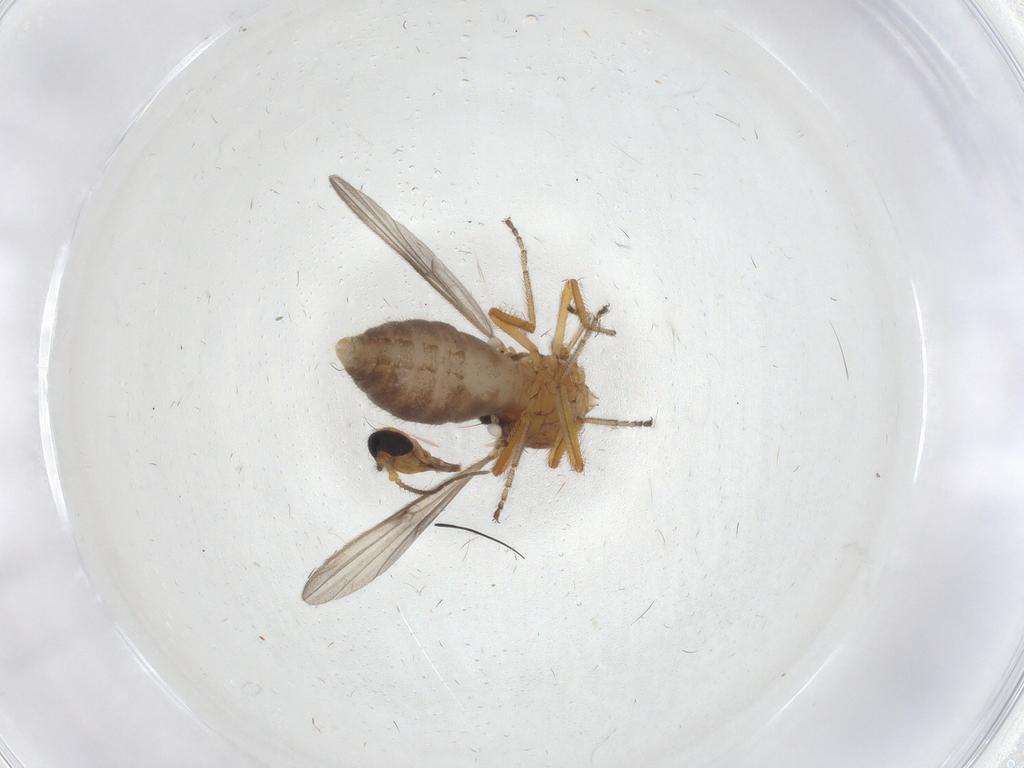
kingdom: Animalia
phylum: Arthropoda
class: Insecta
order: Diptera
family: Ceratopogonidae
